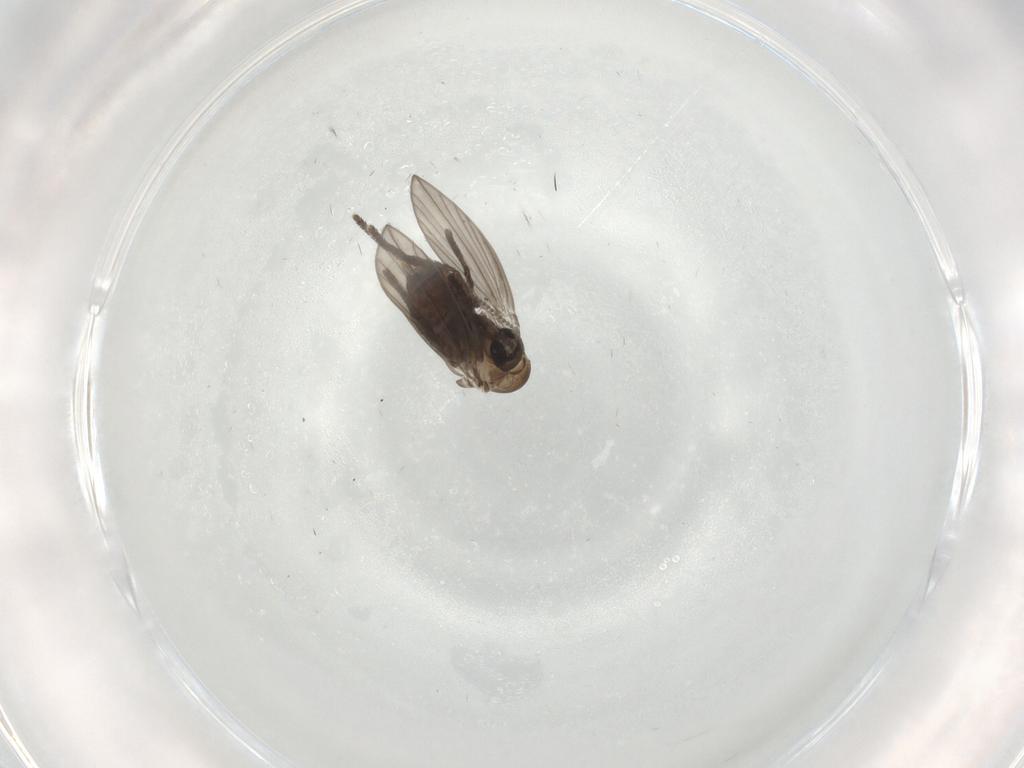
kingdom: Animalia
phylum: Arthropoda
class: Insecta
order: Diptera
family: Psychodidae
